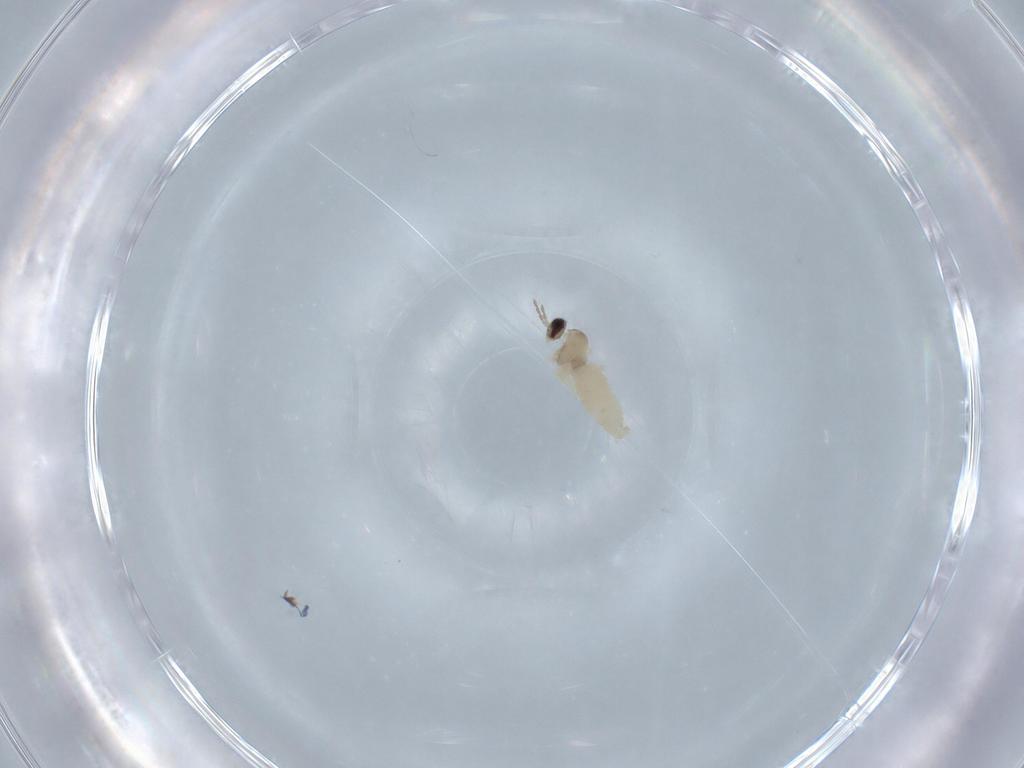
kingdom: Animalia
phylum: Arthropoda
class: Insecta
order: Diptera
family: Cecidomyiidae
